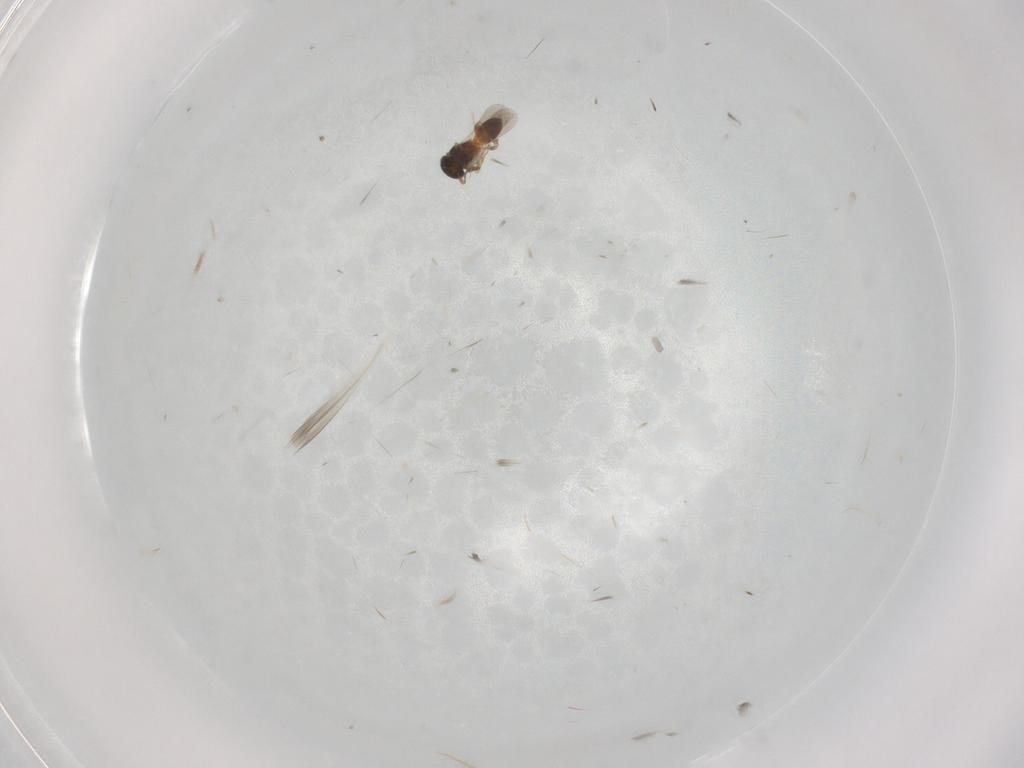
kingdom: Animalia
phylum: Arthropoda
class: Insecta
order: Hymenoptera
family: Platygastridae
